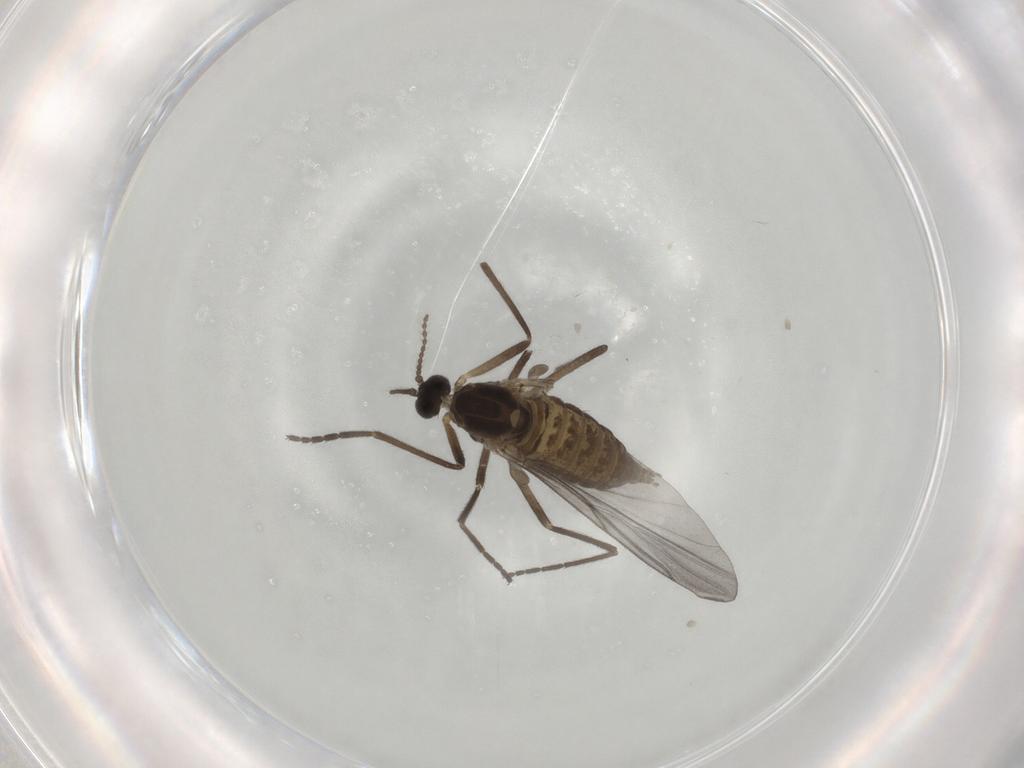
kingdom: Animalia
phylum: Arthropoda
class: Insecta
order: Diptera
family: Cecidomyiidae
